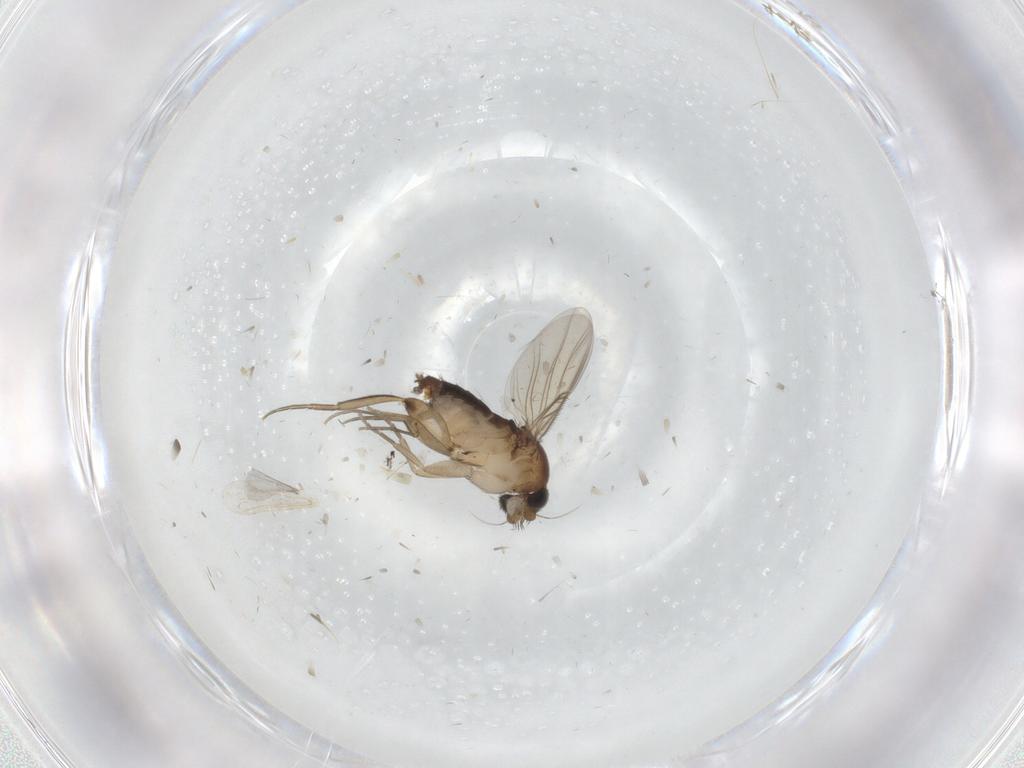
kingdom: Animalia
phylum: Arthropoda
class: Insecta
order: Diptera
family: Phoridae
